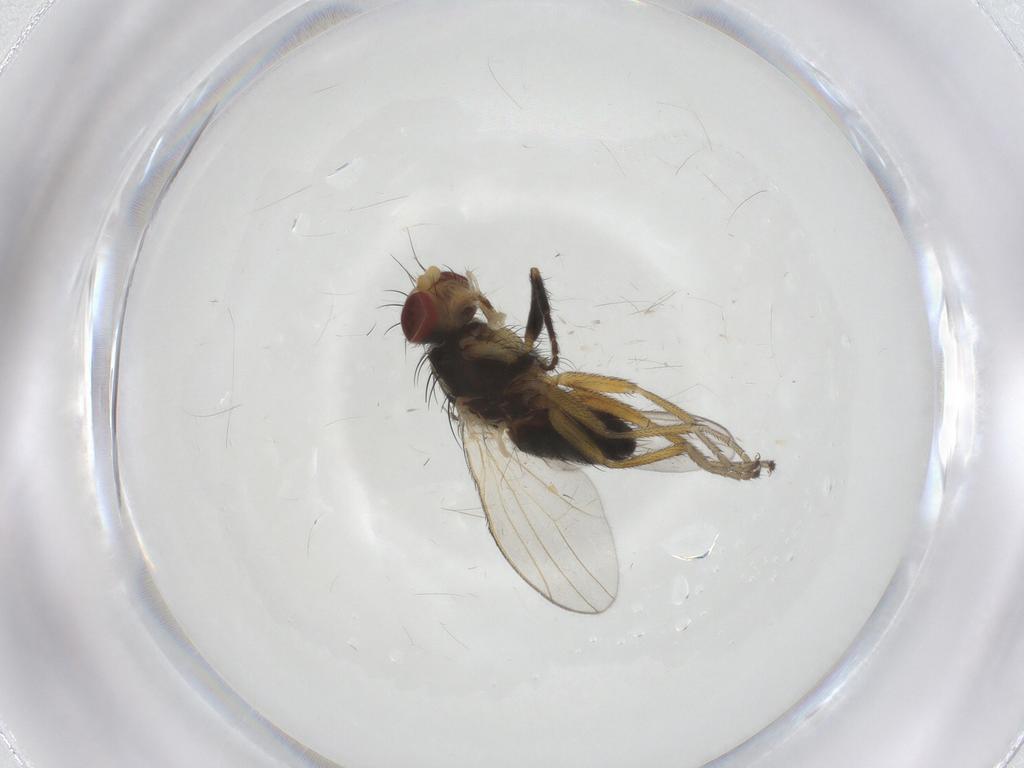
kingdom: Animalia
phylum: Arthropoda
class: Insecta
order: Diptera
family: Heleomyzidae
